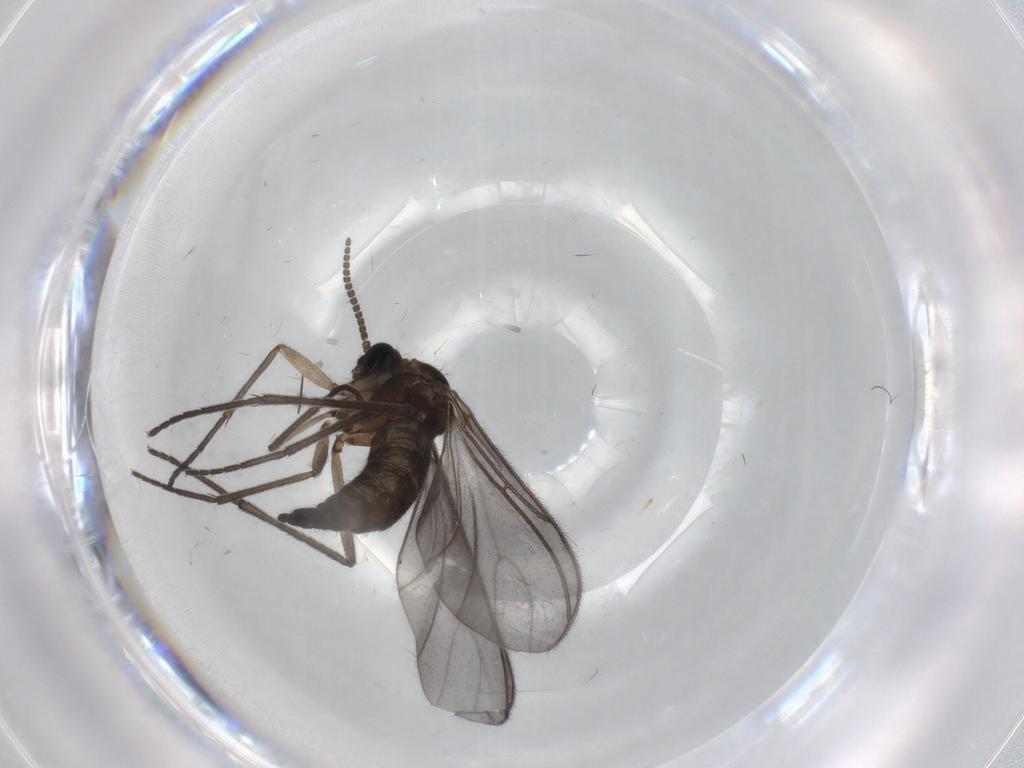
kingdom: Animalia
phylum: Arthropoda
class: Insecta
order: Diptera
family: Sciaridae
